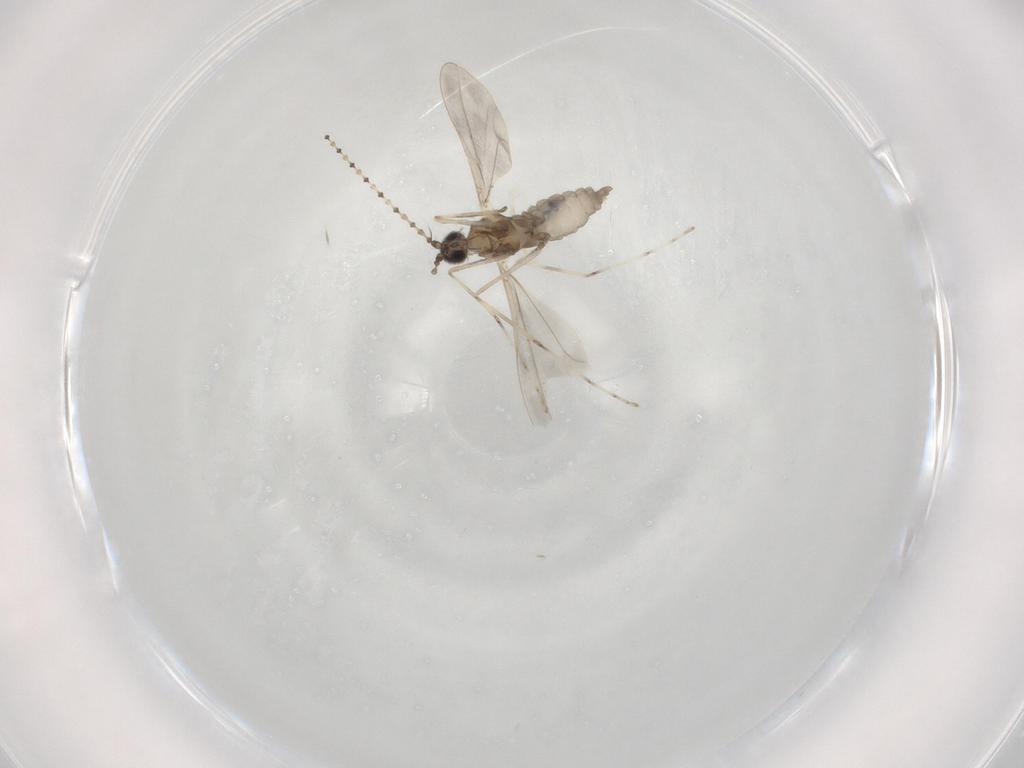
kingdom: Animalia
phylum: Arthropoda
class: Insecta
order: Diptera
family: Cecidomyiidae
